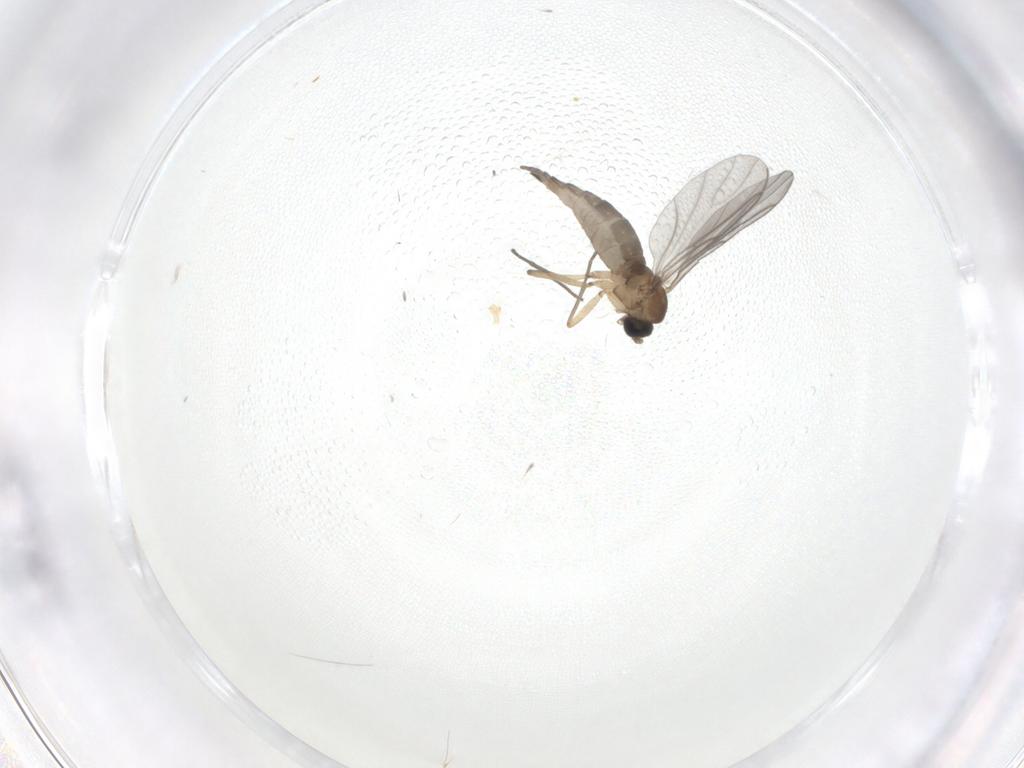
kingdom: Animalia
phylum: Arthropoda
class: Insecta
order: Diptera
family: Sciaridae
